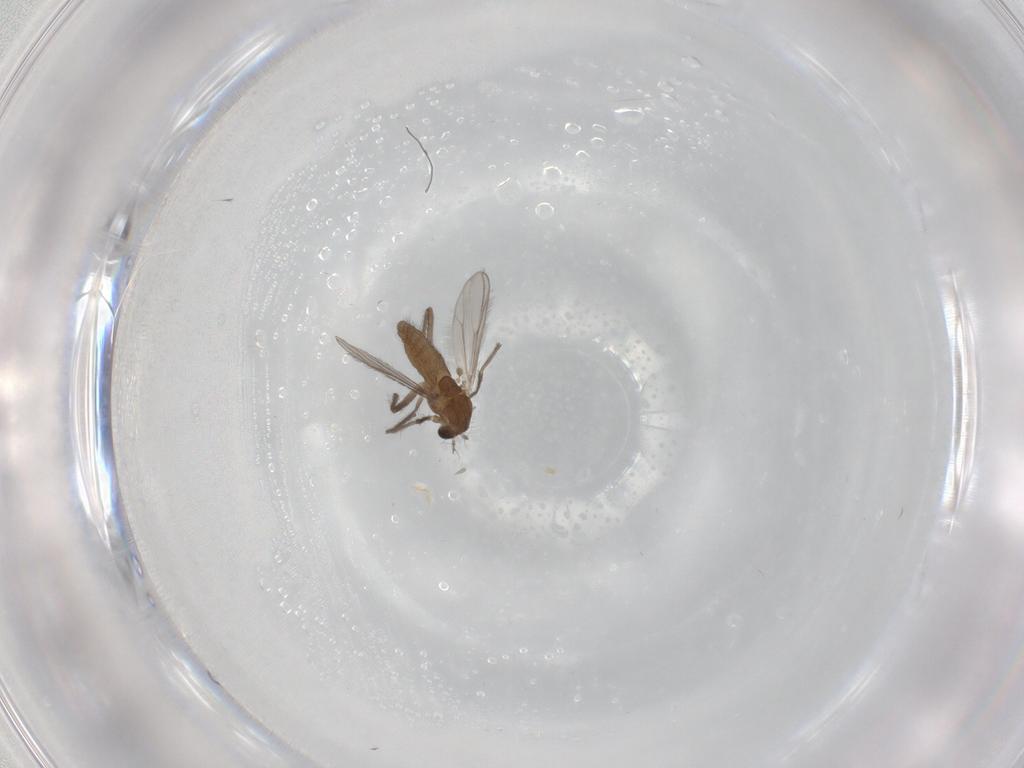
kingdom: Animalia
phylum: Arthropoda
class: Insecta
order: Diptera
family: Chironomidae
